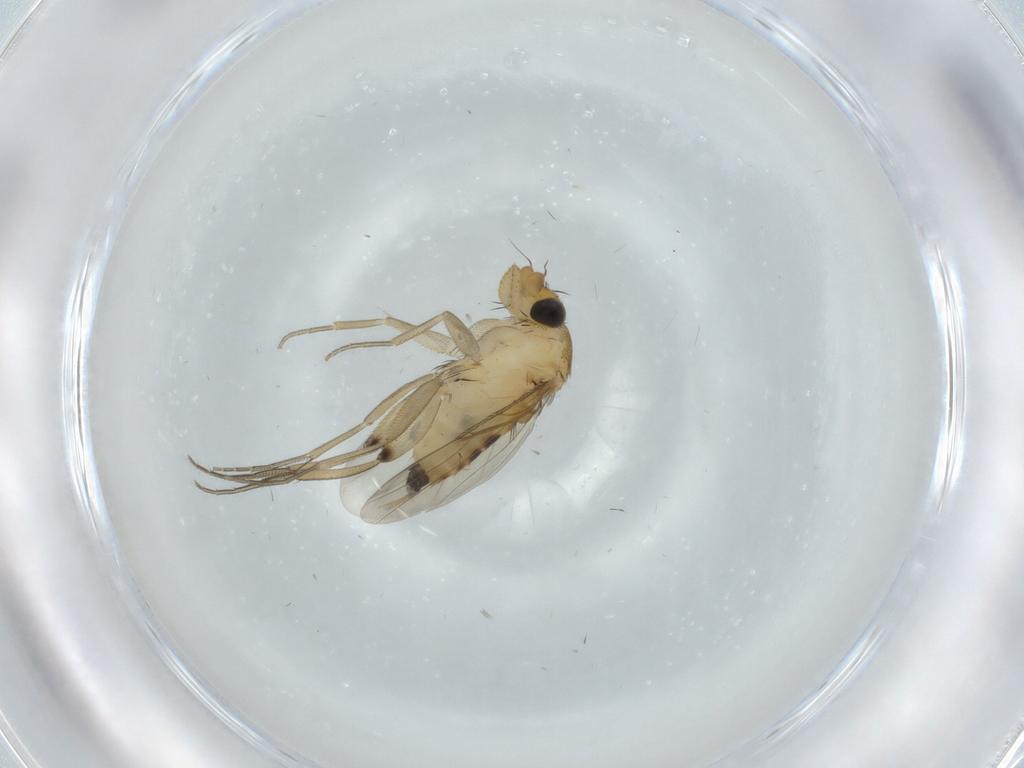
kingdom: Animalia
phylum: Arthropoda
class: Insecta
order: Diptera
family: Phoridae
